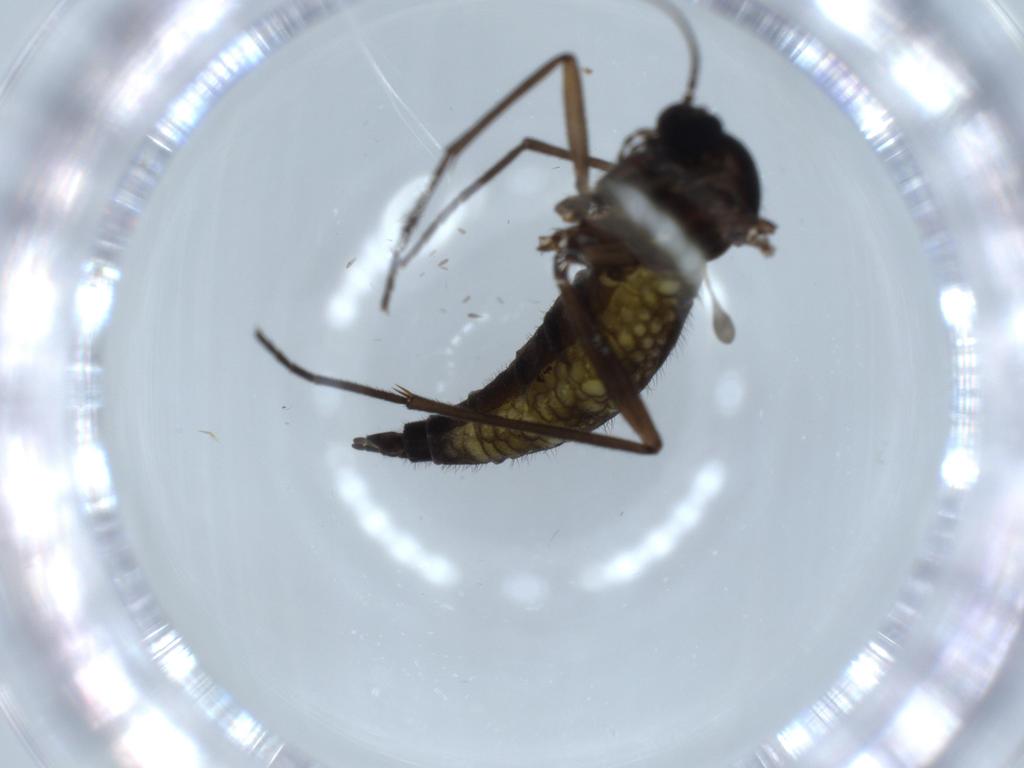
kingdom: Animalia
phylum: Arthropoda
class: Insecta
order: Diptera
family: Sciaridae
